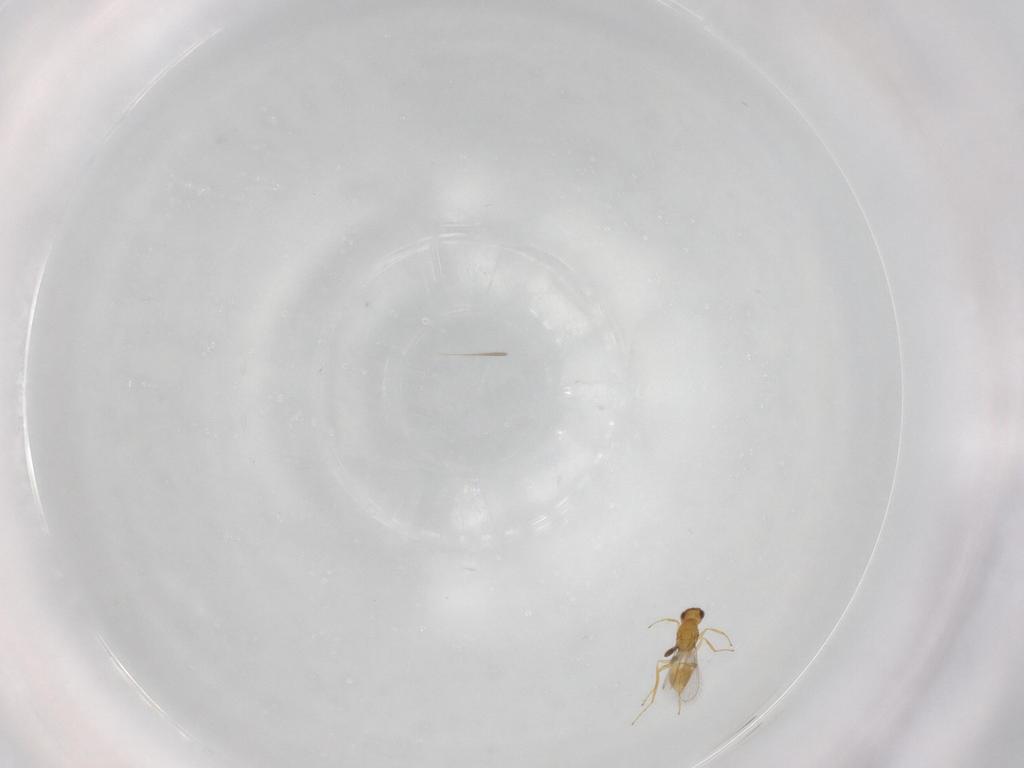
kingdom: Animalia
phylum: Arthropoda
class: Insecta
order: Hymenoptera
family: Mymaridae
